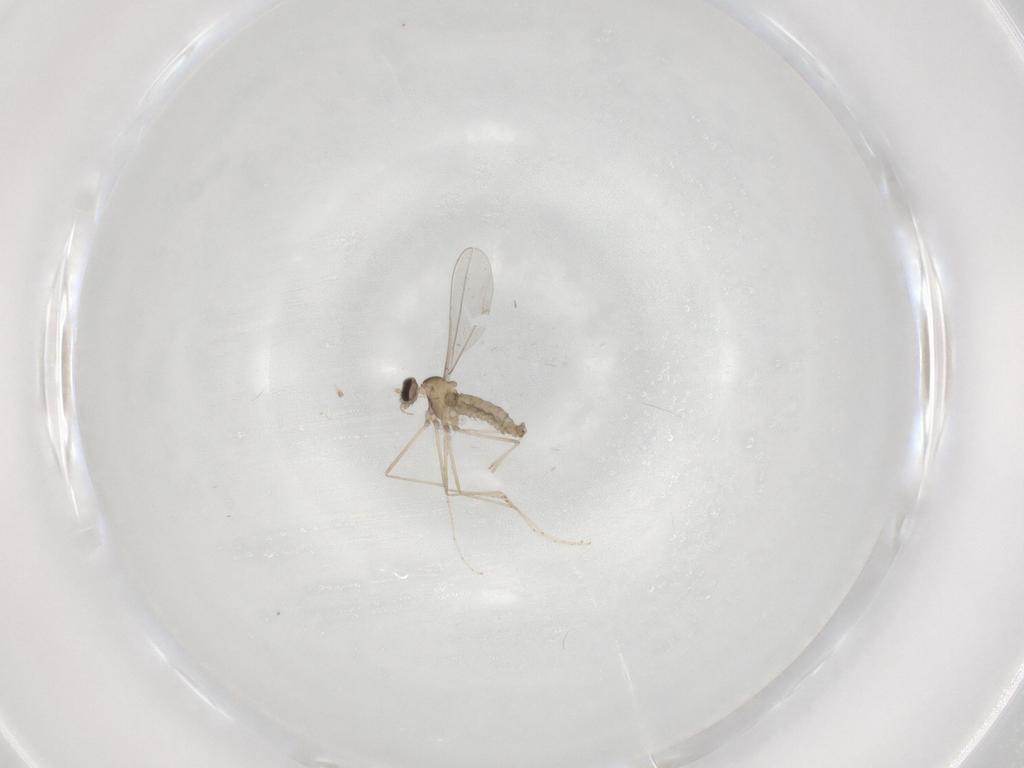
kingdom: Animalia
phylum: Arthropoda
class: Insecta
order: Diptera
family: Cecidomyiidae
